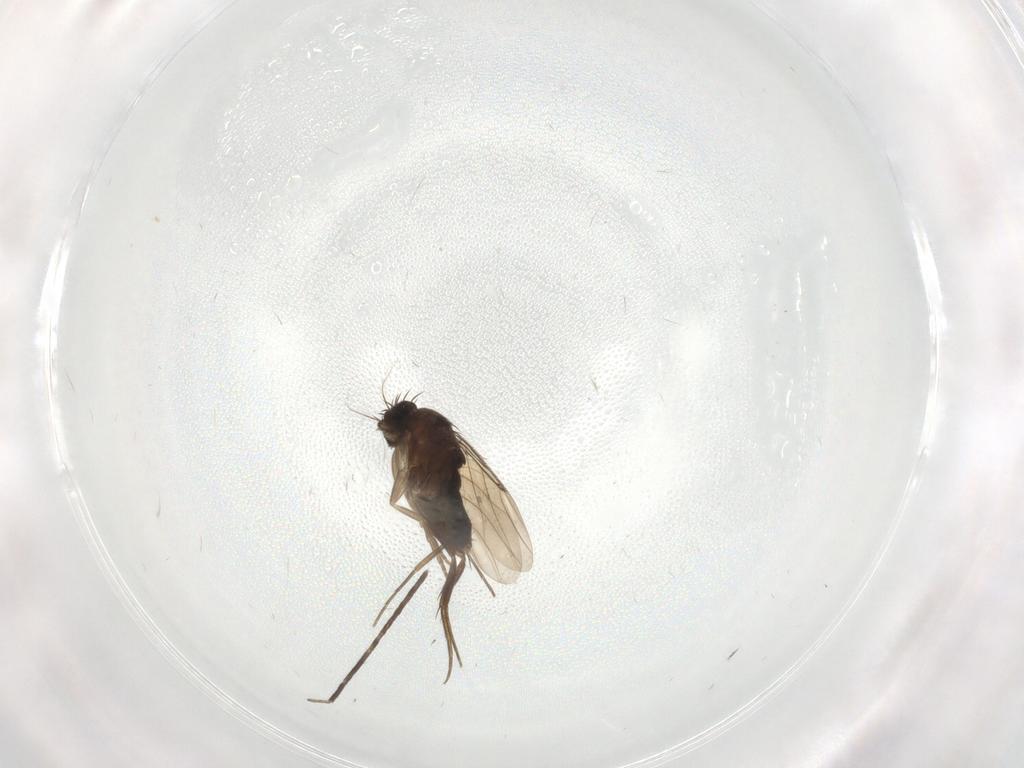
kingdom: Animalia
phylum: Arthropoda
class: Insecta
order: Diptera
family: Phoridae
